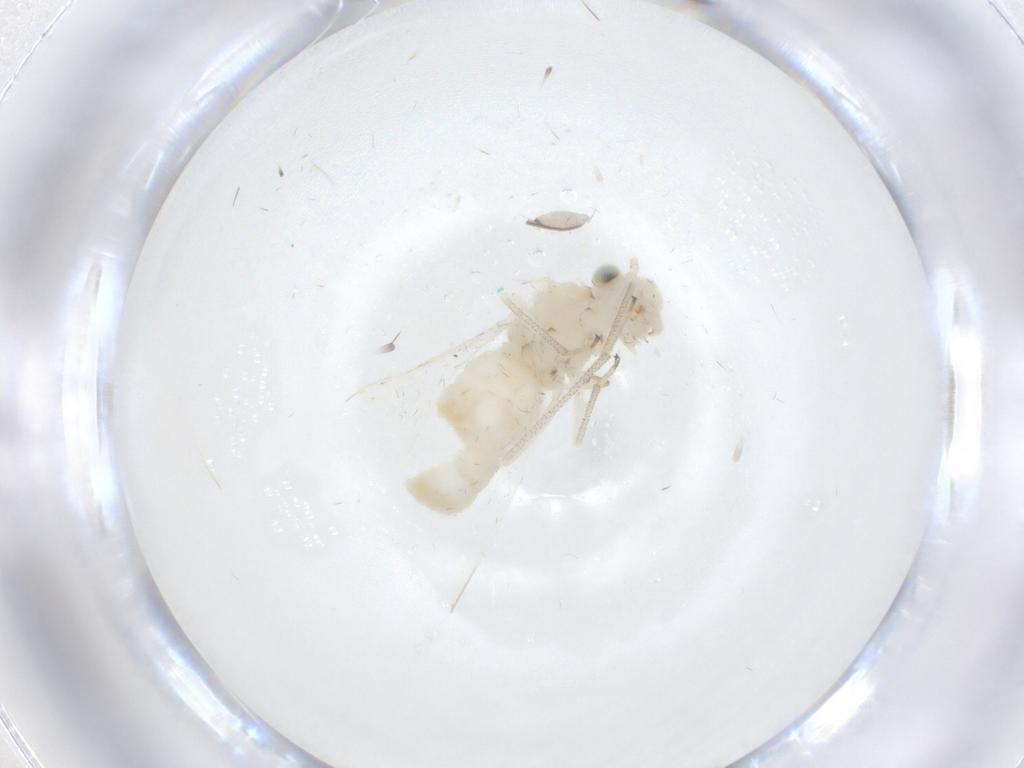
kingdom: Animalia
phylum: Arthropoda
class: Insecta
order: Psocodea
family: Caeciliusidae
